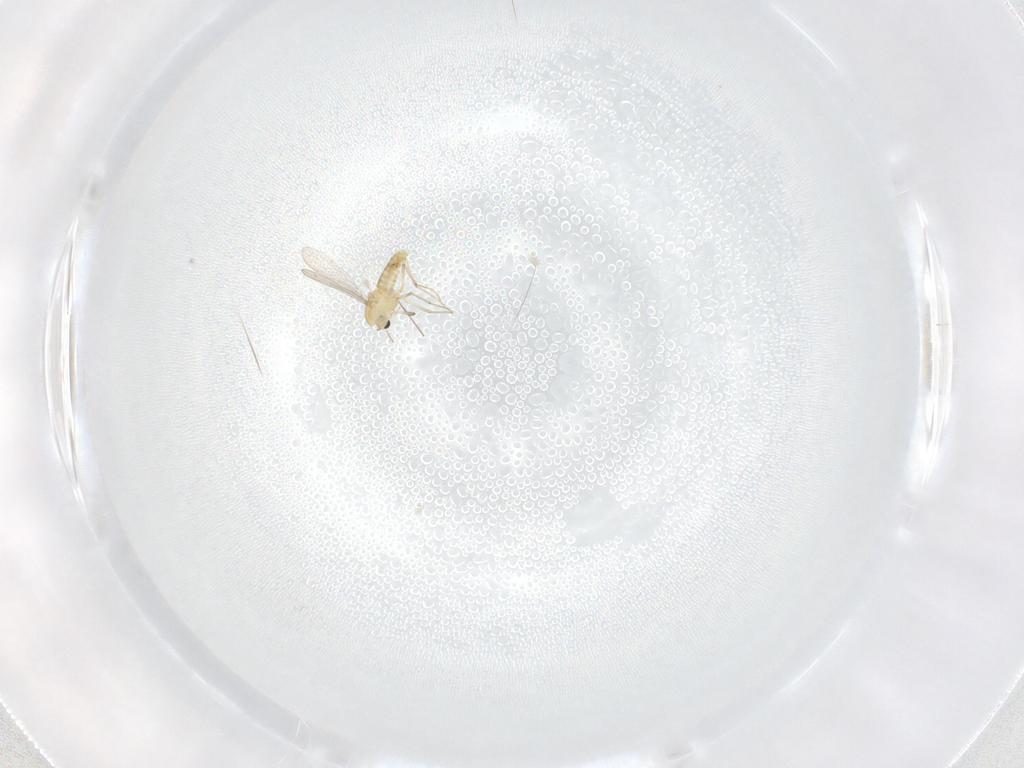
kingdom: Animalia
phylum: Arthropoda
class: Insecta
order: Diptera
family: Chironomidae
